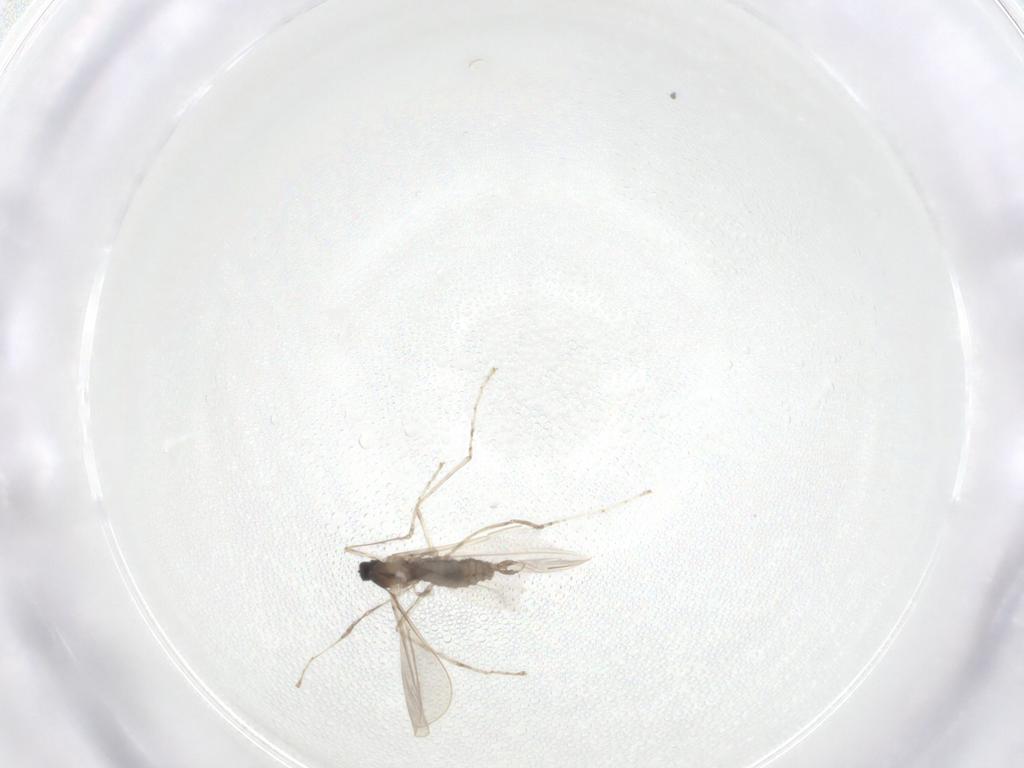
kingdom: Animalia
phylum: Arthropoda
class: Insecta
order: Diptera
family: Cecidomyiidae
